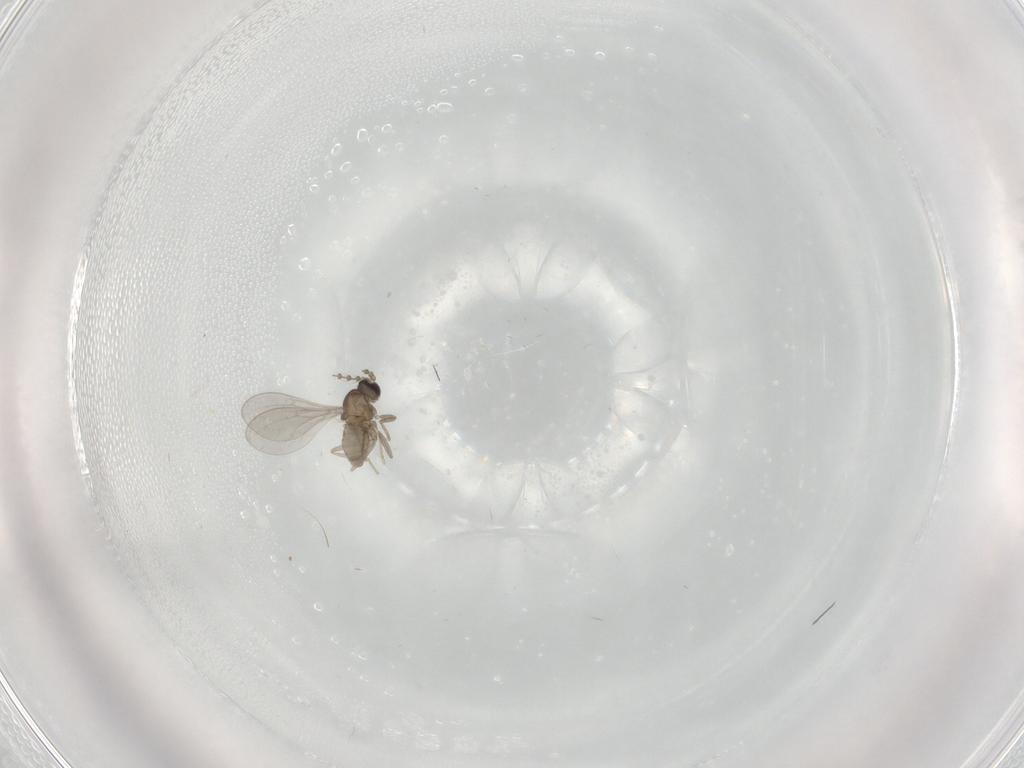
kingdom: Animalia
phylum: Arthropoda
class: Insecta
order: Diptera
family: Cecidomyiidae
